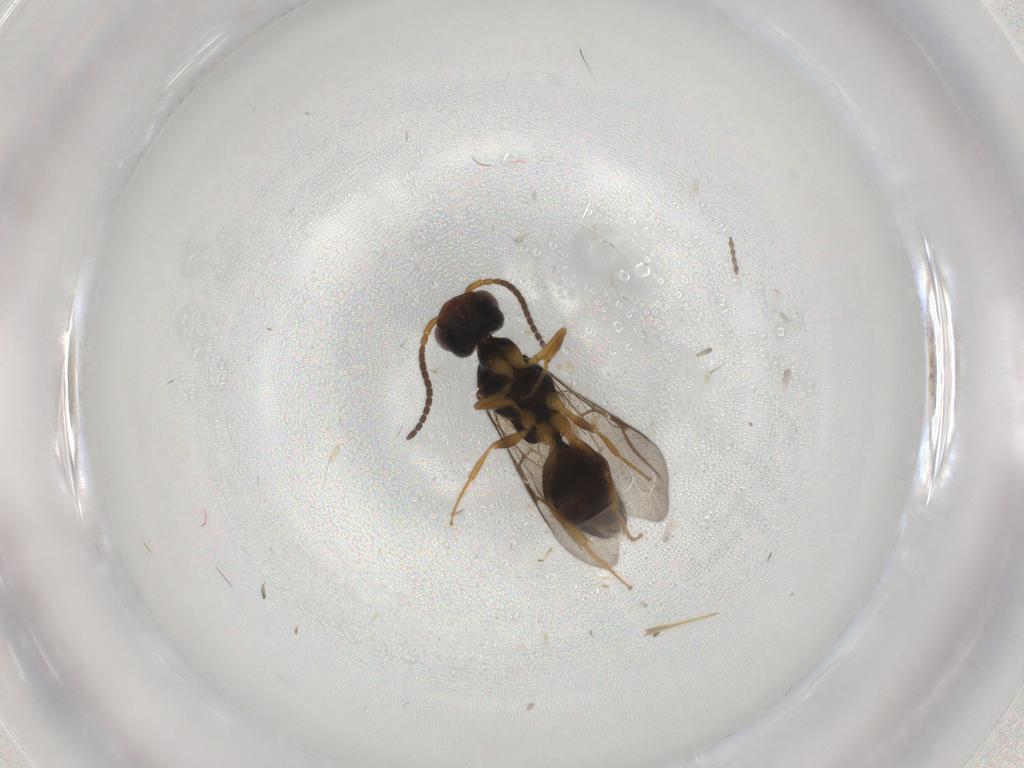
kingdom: Animalia
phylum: Arthropoda
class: Insecta
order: Hymenoptera
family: Bethylidae
